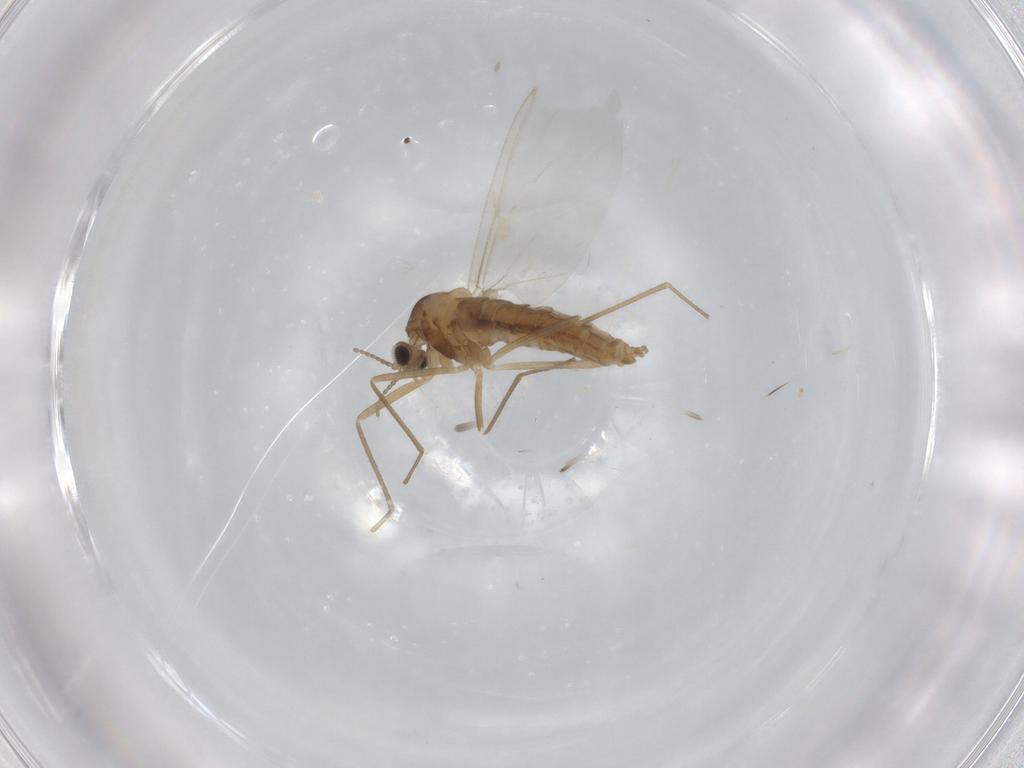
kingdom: Animalia
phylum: Arthropoda
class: Insecta
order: Diptera
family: Cecidomyiidae
